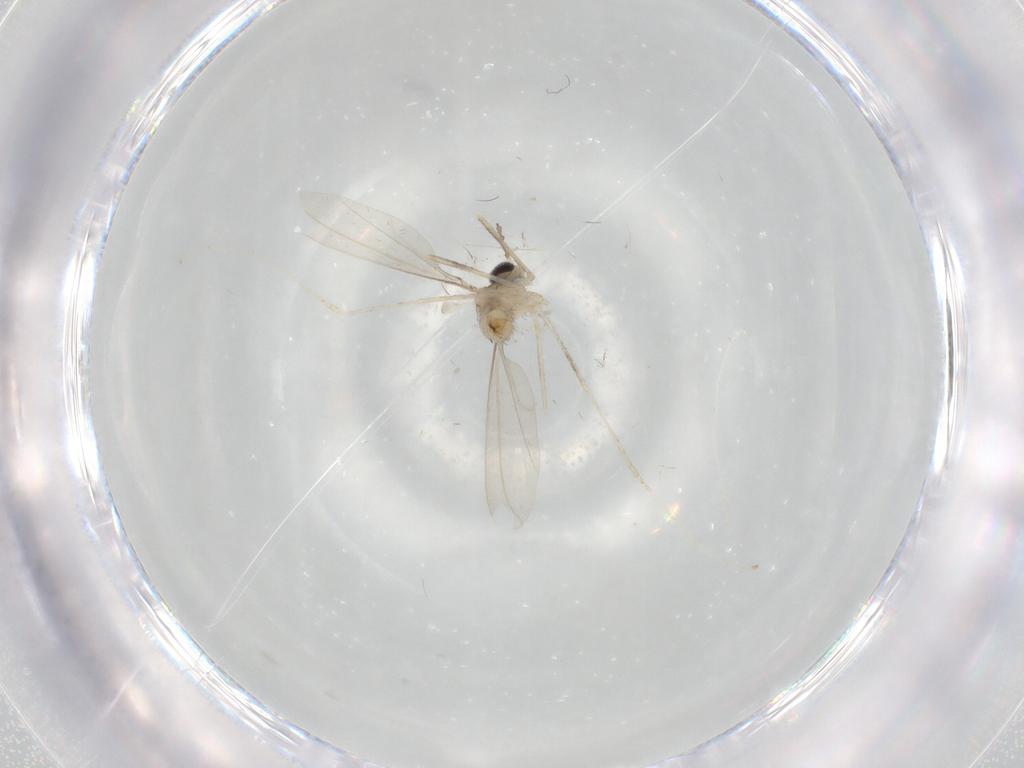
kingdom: Animalia
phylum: Arthropoda
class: Insecta
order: Diptera
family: Cecidomyiidae
